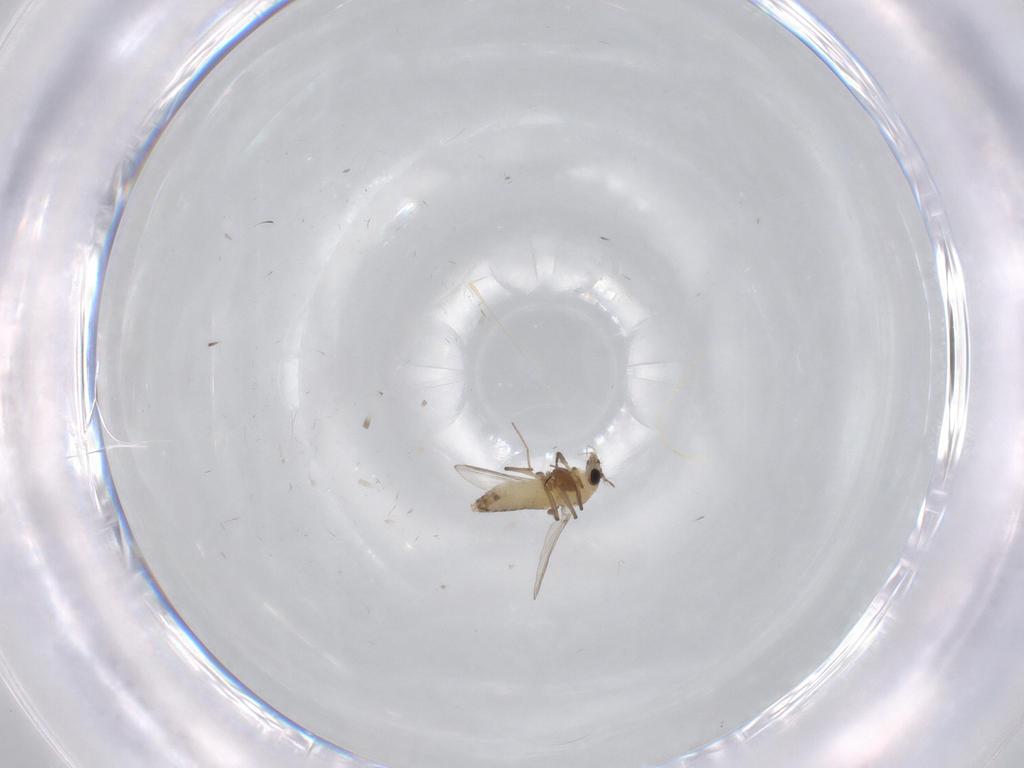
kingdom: Animalia
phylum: Arthropoda
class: Insecta
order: Diptera
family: Chironomidae
